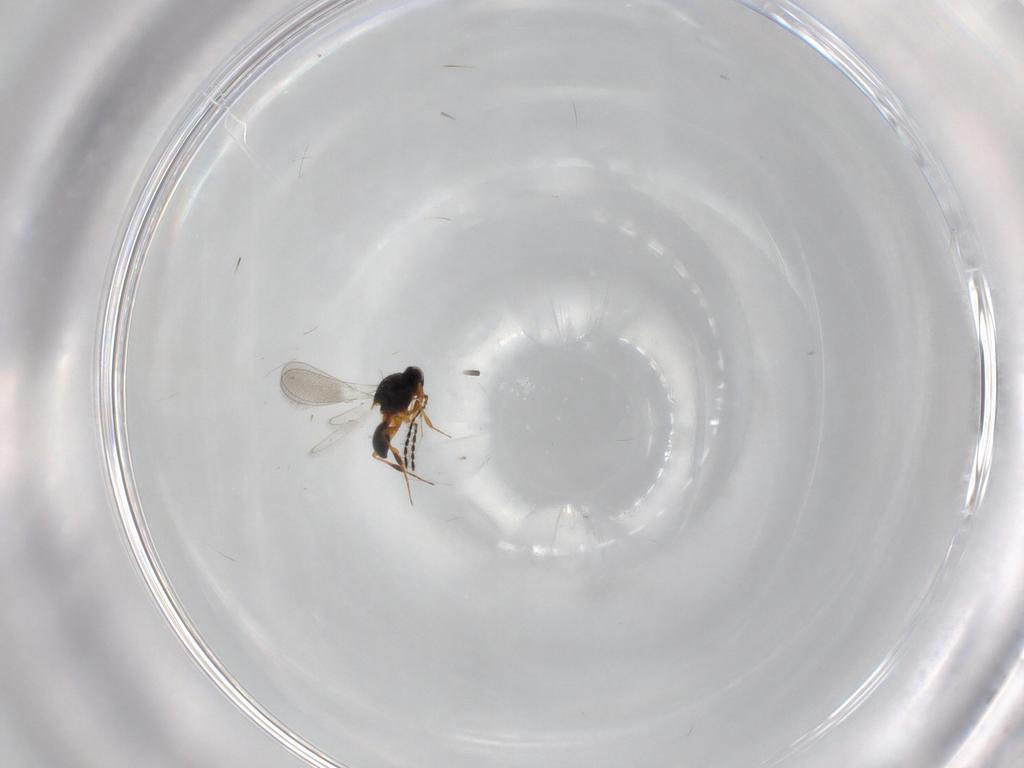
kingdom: Animalia
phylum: Arthropoda
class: Insecta
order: Hymenoptera
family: Platygastridae
